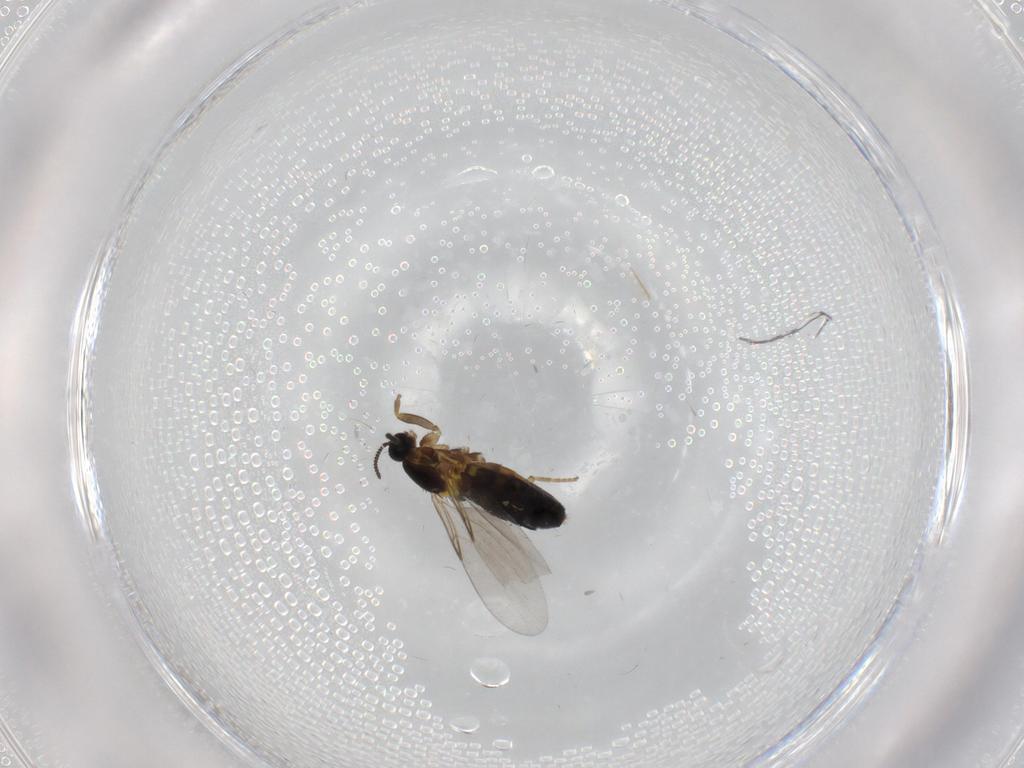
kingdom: Animalia
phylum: Arthropoda
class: Insecta
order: Diptera
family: Scatopsidae
